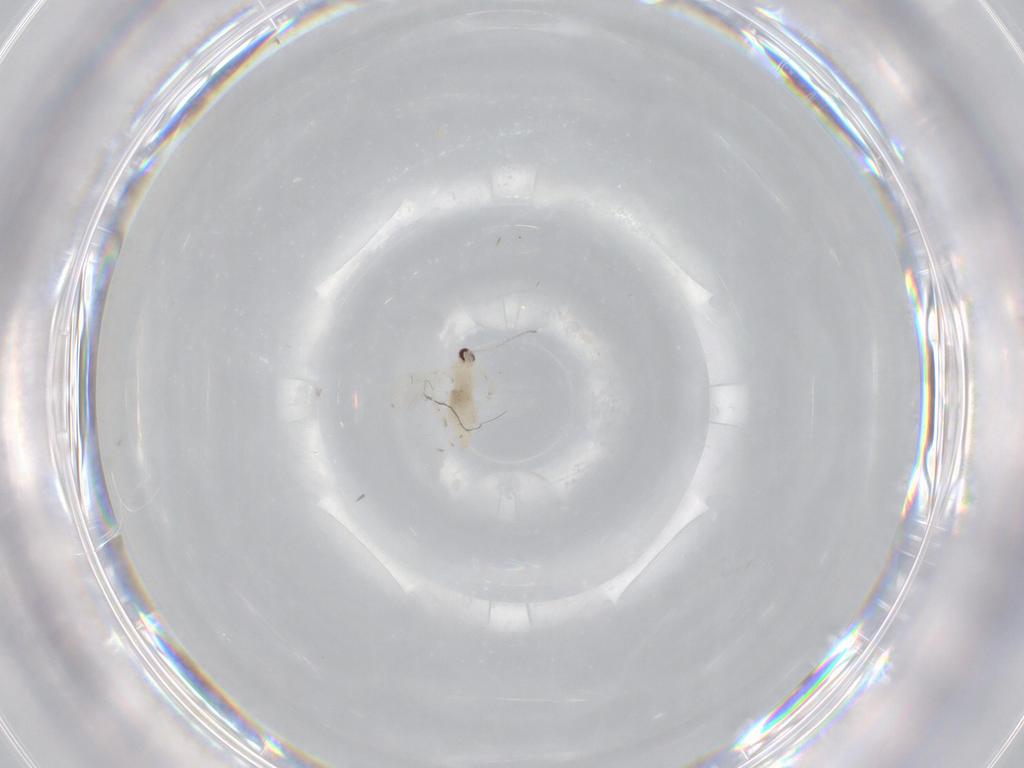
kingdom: Animalia
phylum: Arthropoda
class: Insecta
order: Diptera
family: Cecidomyiidae
